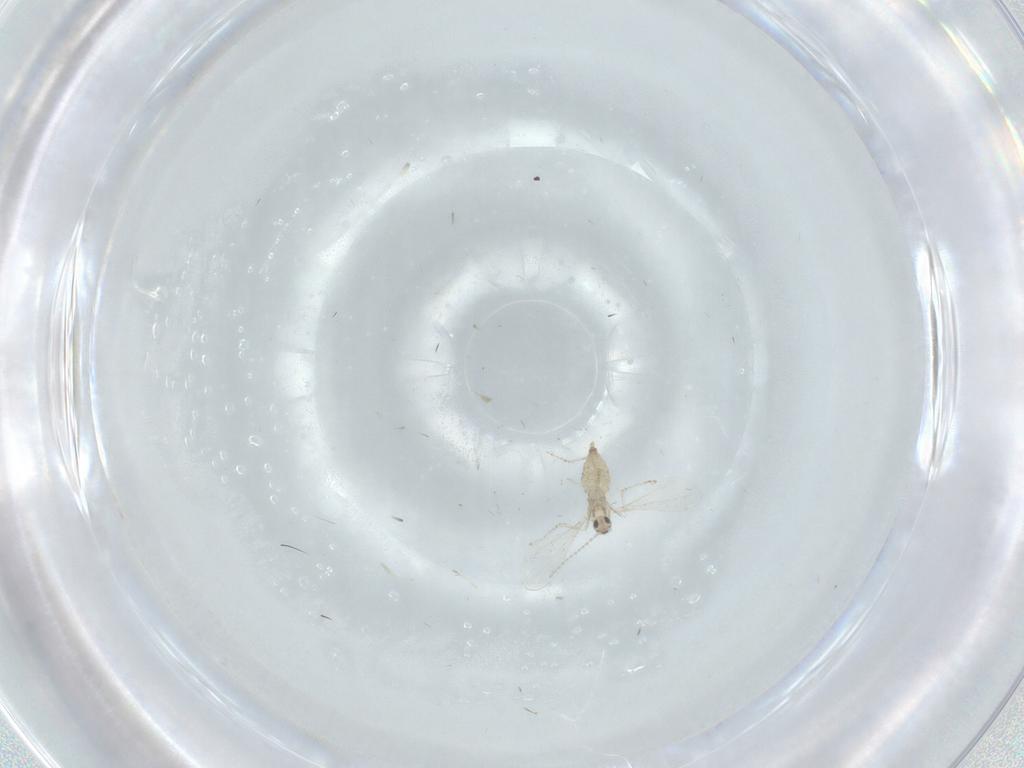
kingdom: Animalia
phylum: Arthropoda
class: Insecta
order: Diptera
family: Cecidomyiidae
